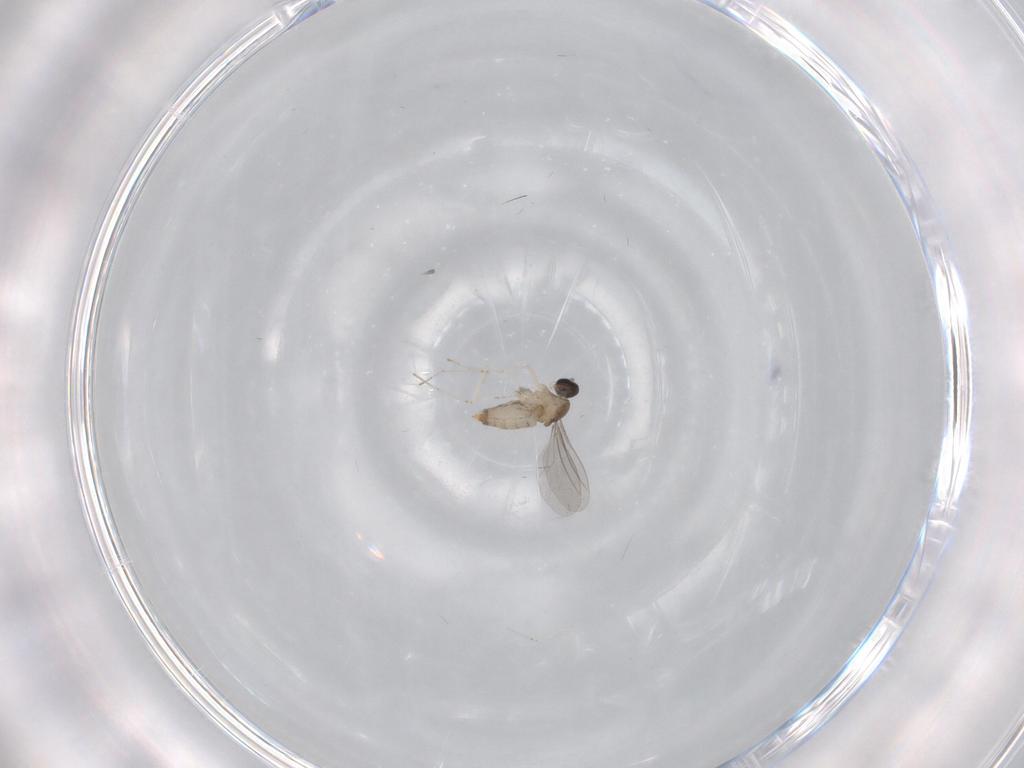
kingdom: Animalia
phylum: Arthropoda
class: Insecta
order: Diptera
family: Cecidomyiidae
